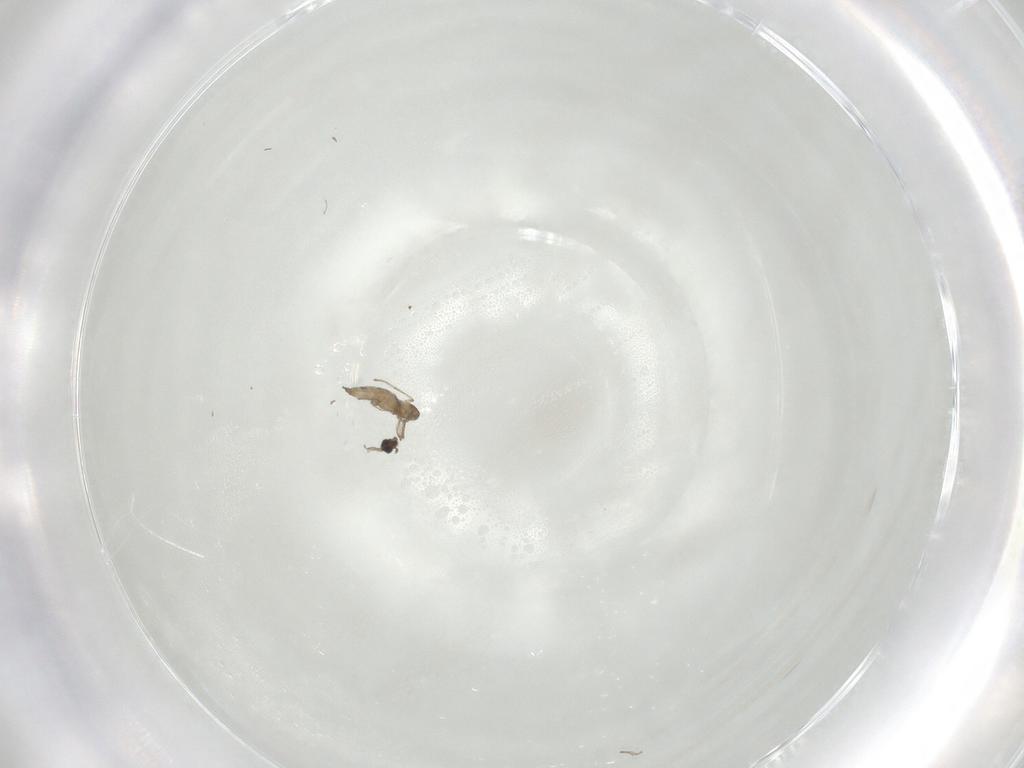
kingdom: Animalia
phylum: Arthropoda
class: Insecta
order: Diptera
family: Cecidomyiidae
